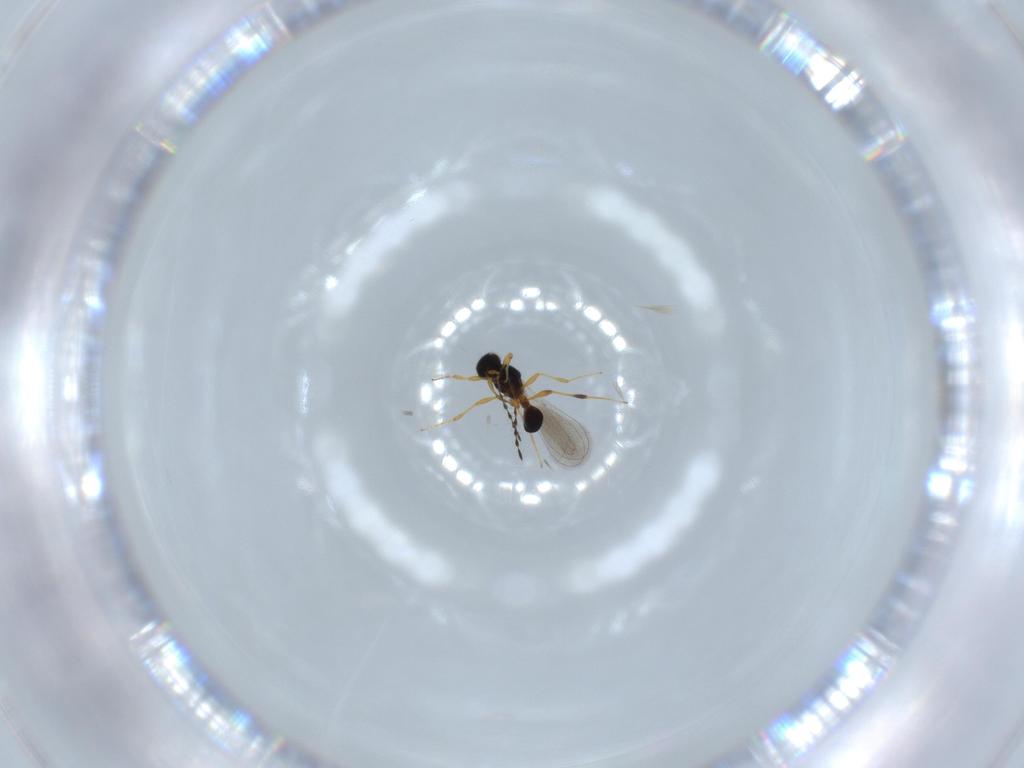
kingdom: Animalia
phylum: Arthropoda
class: Insecta
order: Hymenoptera
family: Platygastridae
